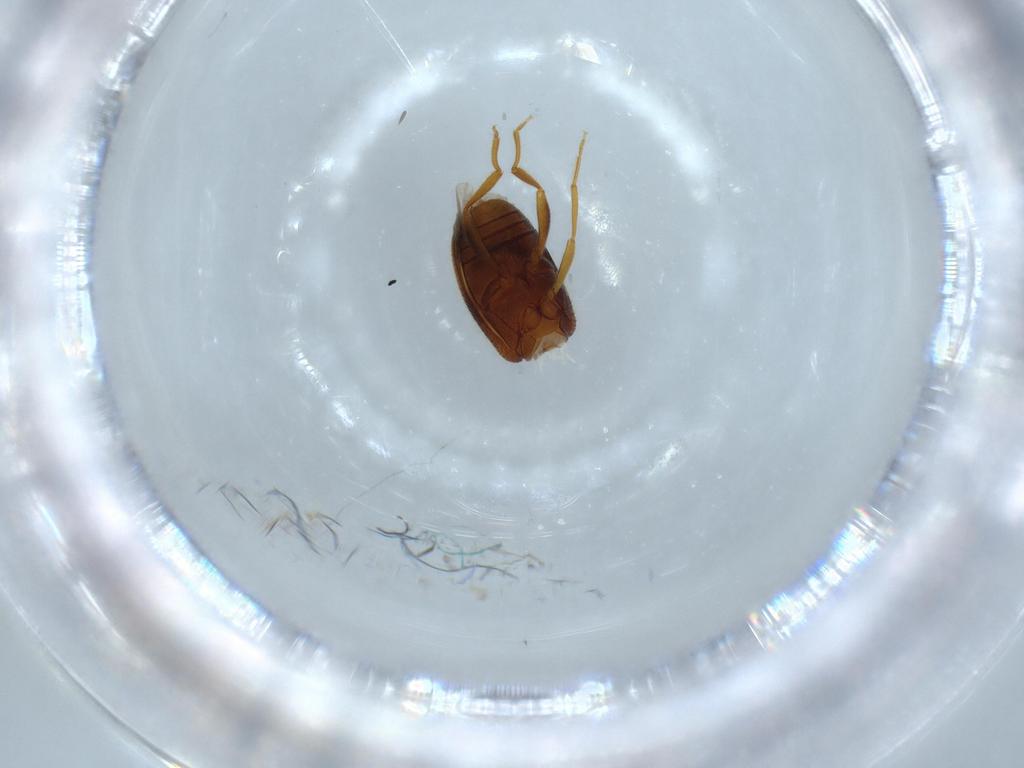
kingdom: Animalia
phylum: Arthropoda
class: Insecta
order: Coleoptera
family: Aderidae
